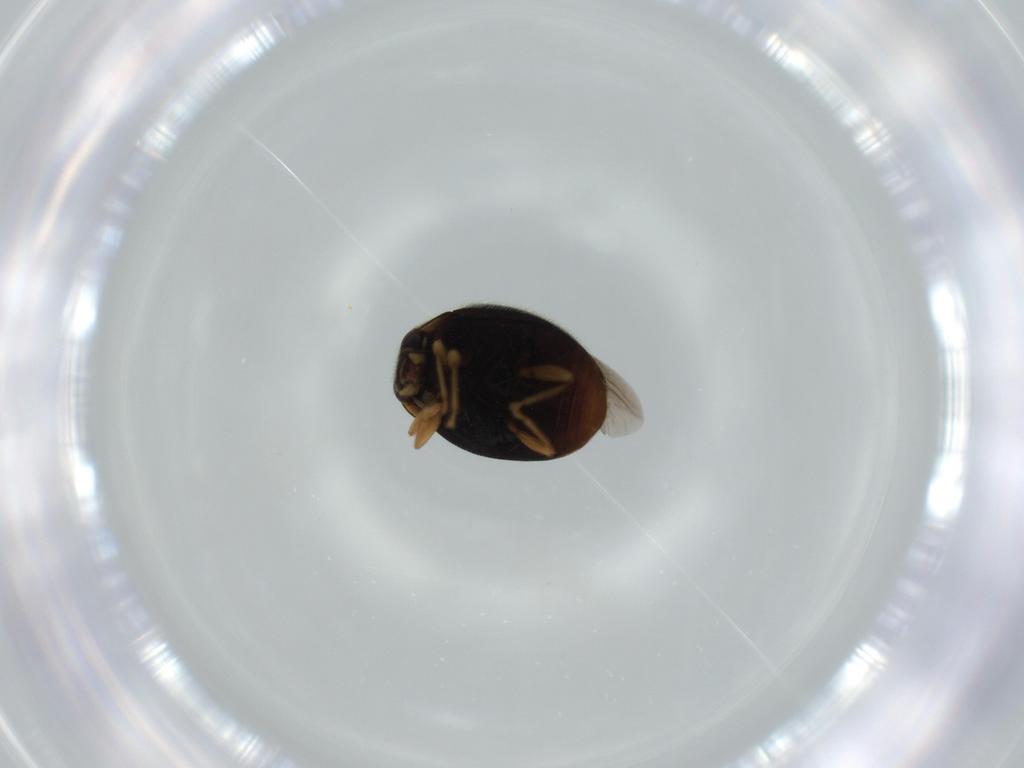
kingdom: Animalia
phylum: Arthropoda
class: Insecta
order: Coleoptera
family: Coccinellidae
